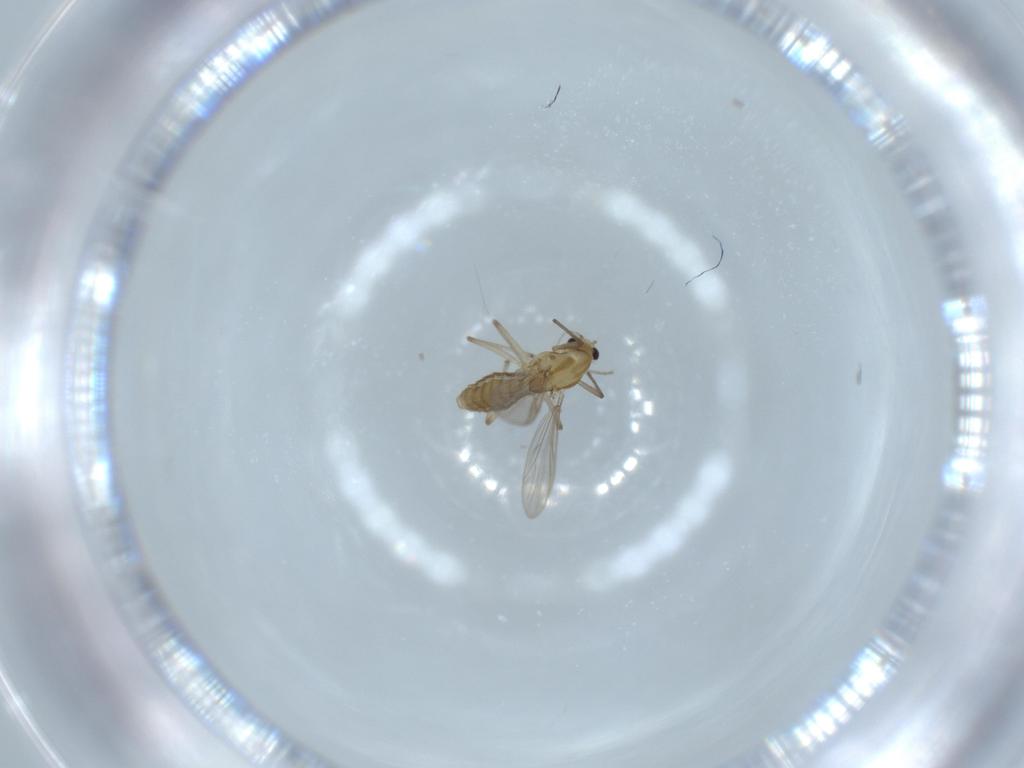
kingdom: Animalia
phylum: Arthropoda
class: Insecta
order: Diptera
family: Chironomidae
